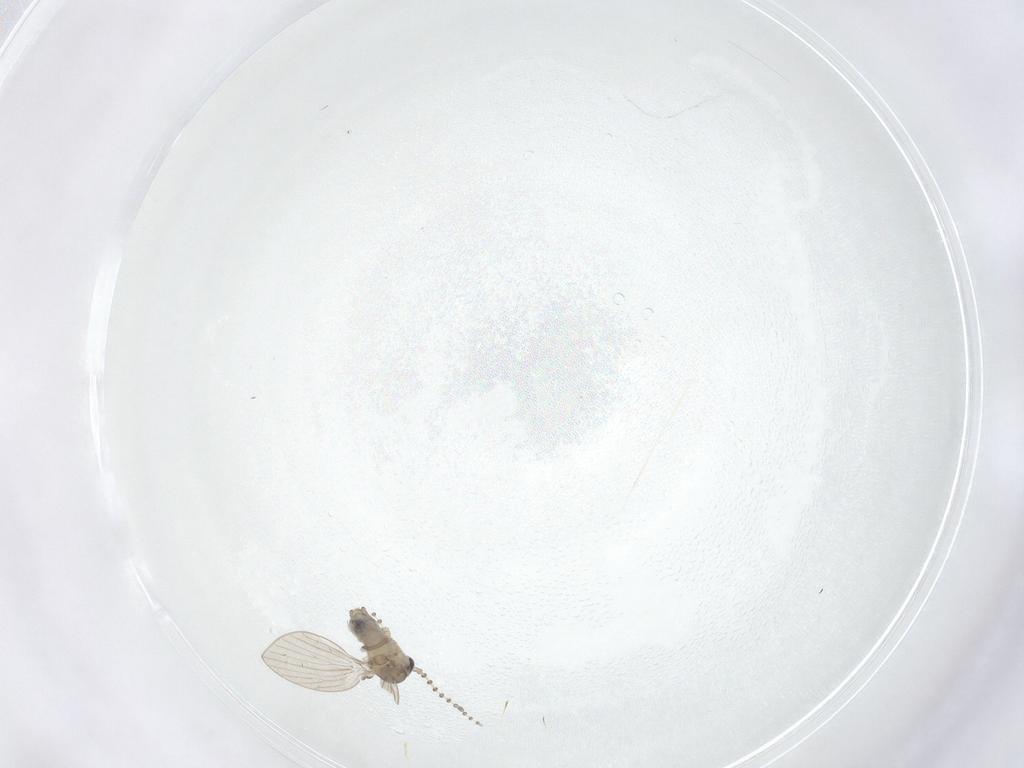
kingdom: Animalia
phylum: Arthropoda
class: Insecta
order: Diptera
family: Psychodidae
